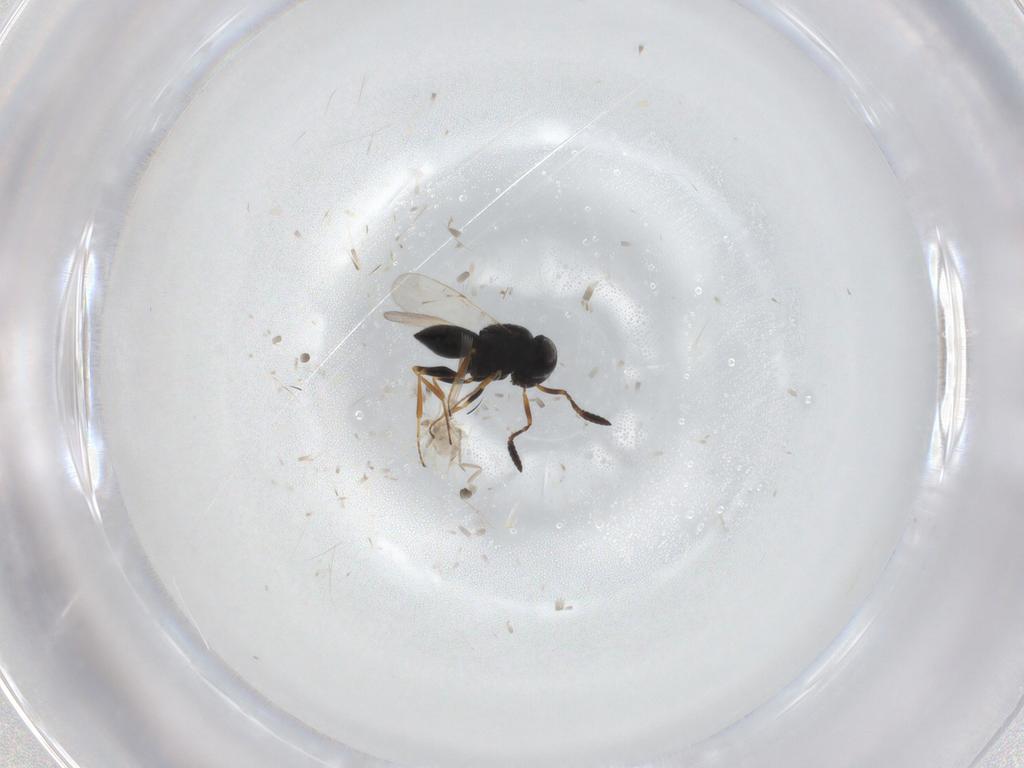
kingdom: Animalia
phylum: Arthropoda
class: Insecta
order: Coleoptera
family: Curculionidae
